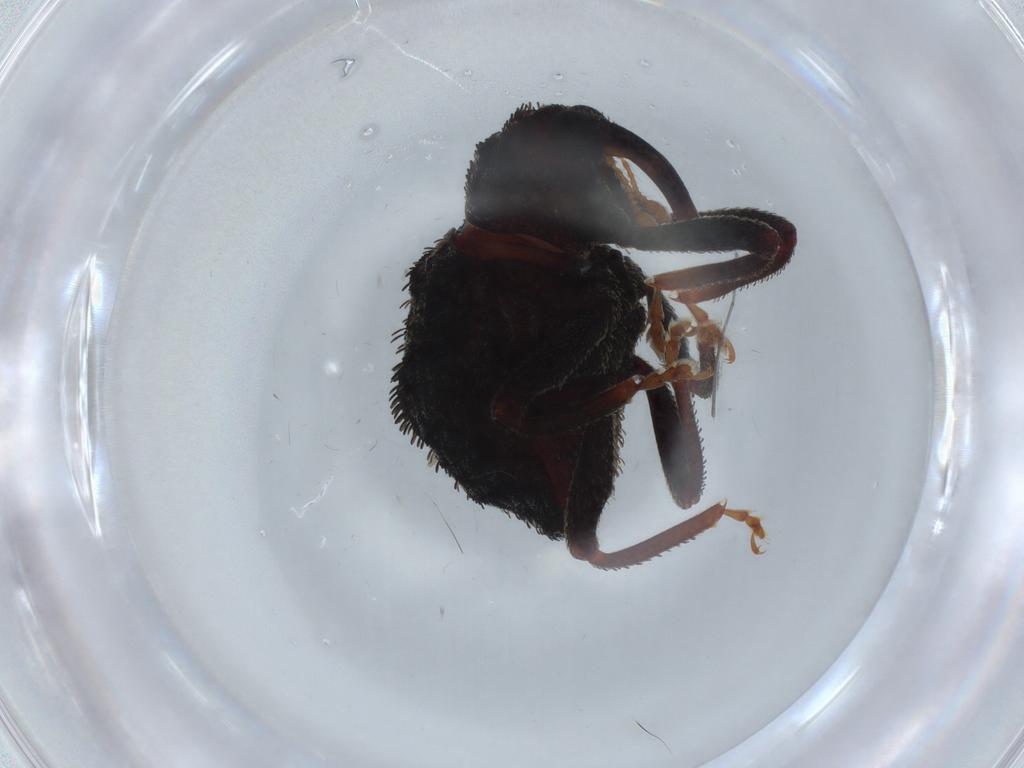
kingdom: Animalia
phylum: Arthropoda
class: Insecta
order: Coleoptera
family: Curculionidae
